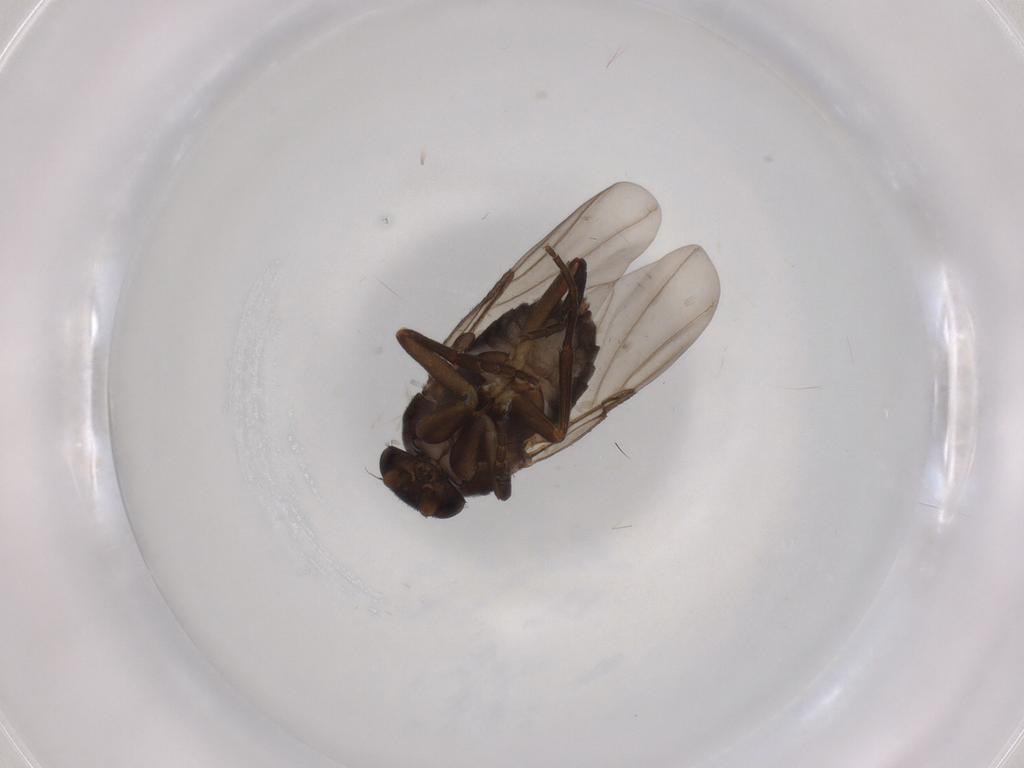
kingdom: Animalia
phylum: Arthropoda
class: Insecta
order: Diptera
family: Phoridae
